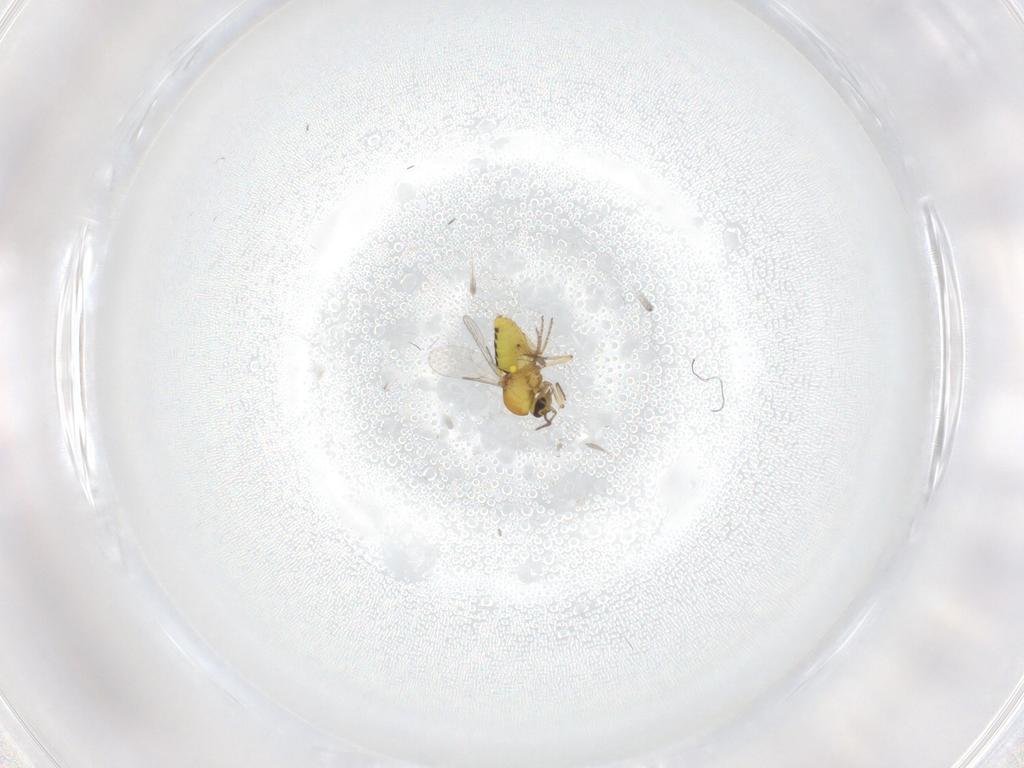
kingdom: Animalia
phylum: Arthropoda
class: Insecta
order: Diptera
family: Ceratopogonidae
